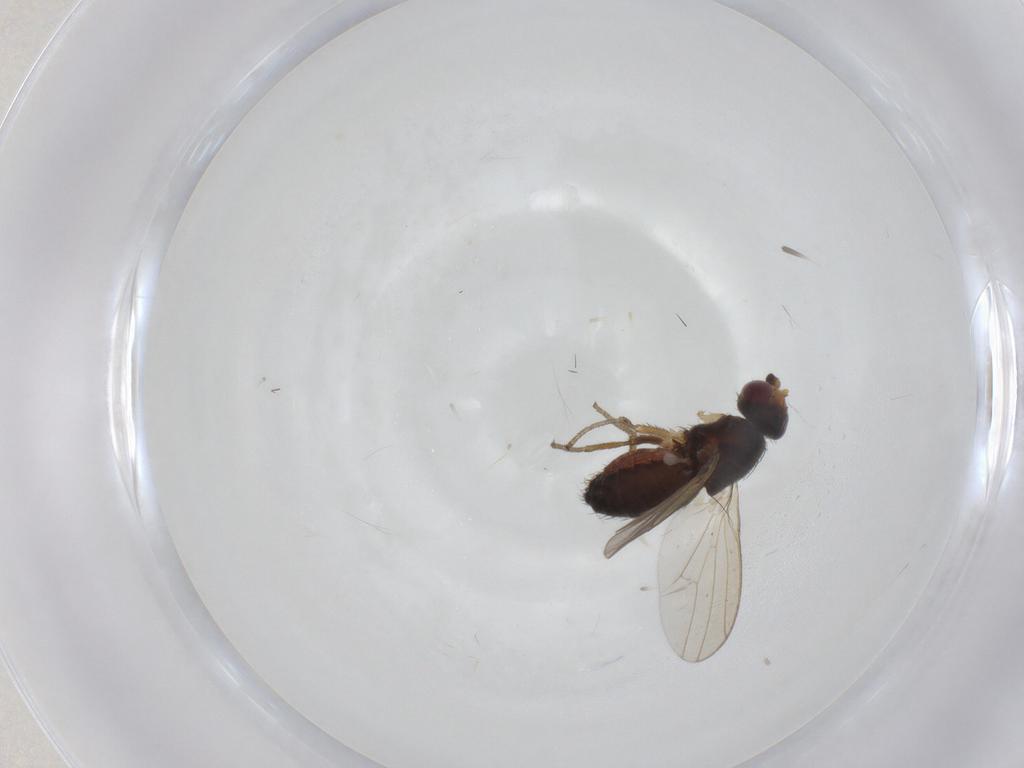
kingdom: Animalia
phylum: Arthropoda
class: Insecta
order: Diptera
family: Heleomyzidae
